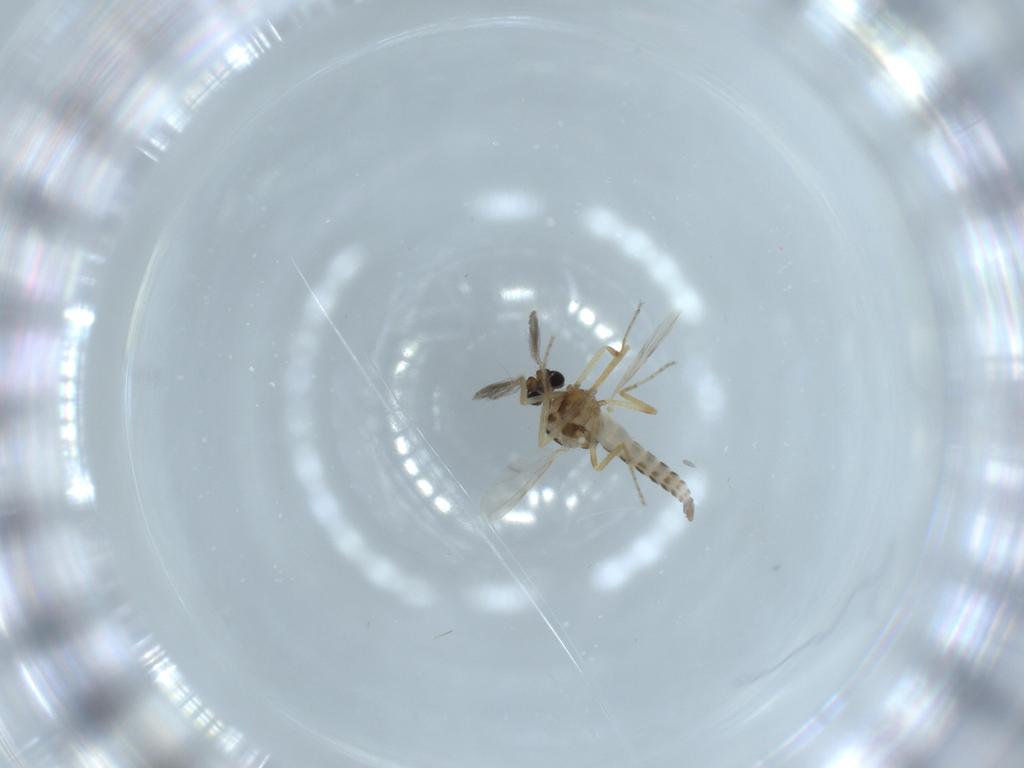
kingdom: Animalia
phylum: Arthropoda
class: Insecta
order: Diptera
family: Ceratopogonidae
